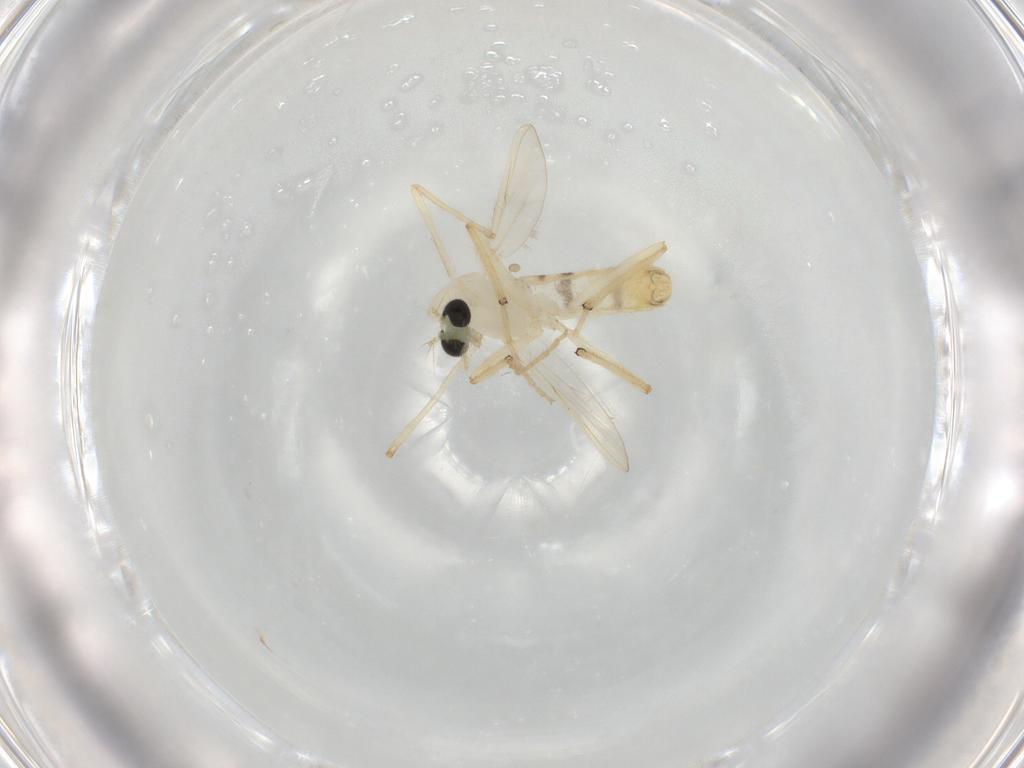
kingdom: Animalia
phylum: Arthropoda
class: Insecta
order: Diptera
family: Chironomidae
